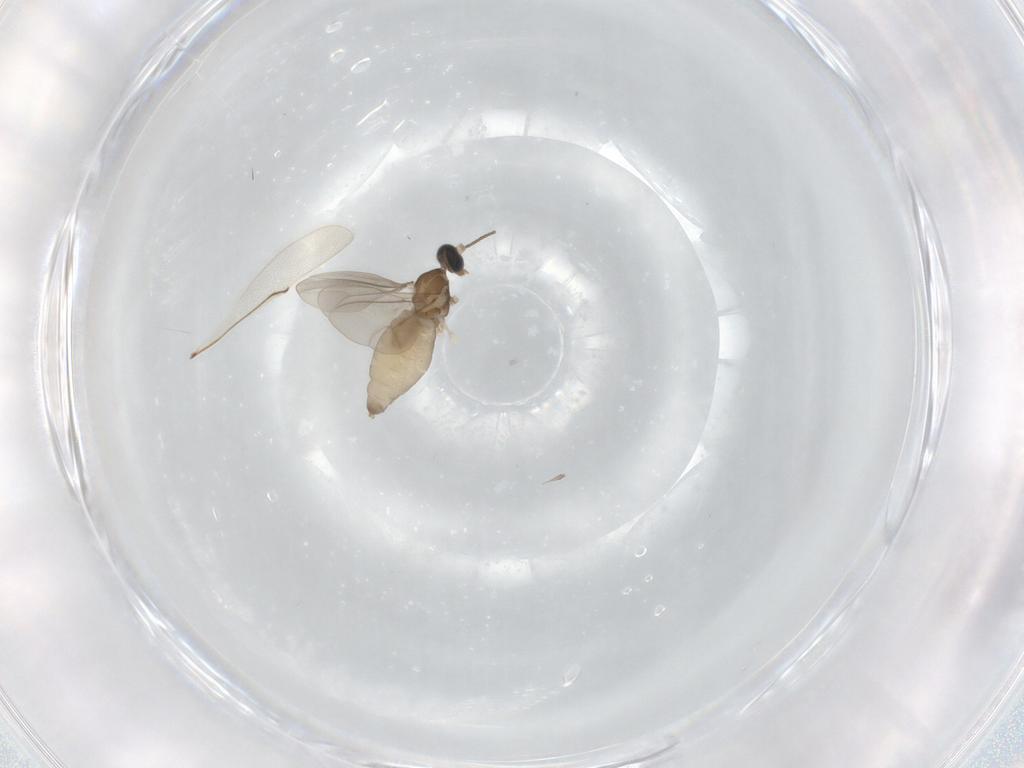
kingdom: Animalia
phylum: Arthropoda
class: Insecta
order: Diptera
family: Cecidomyiidae
